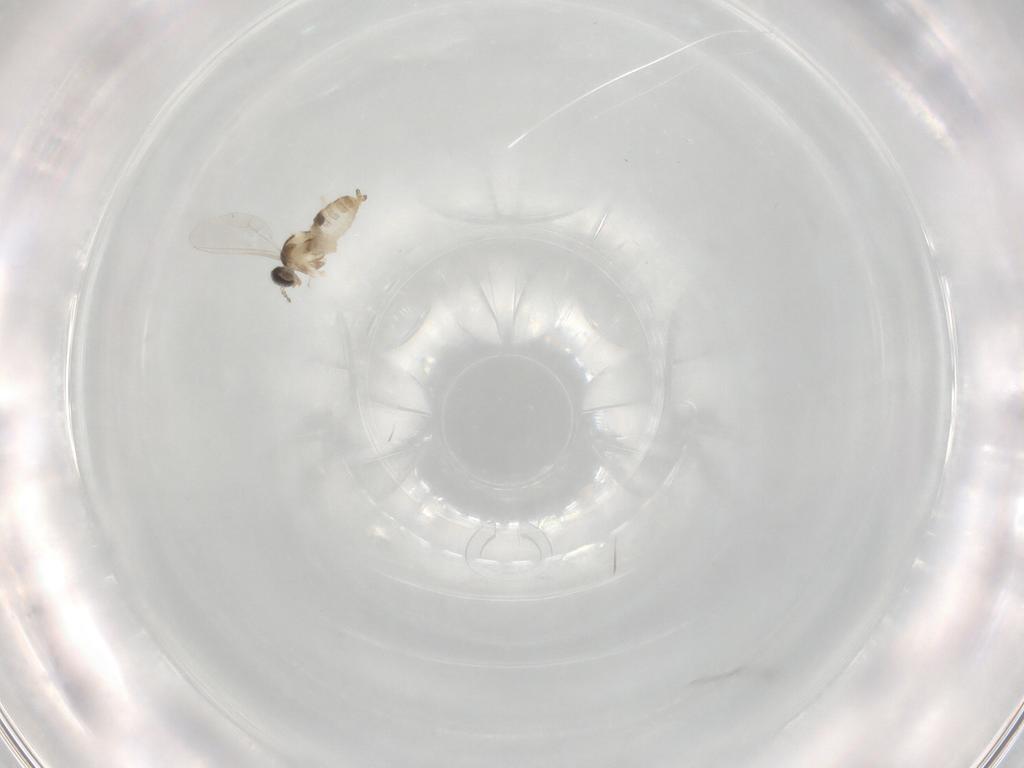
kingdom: Animalia
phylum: Arthropoda
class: Insecta
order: Diptera
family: Cecidomyiidae
